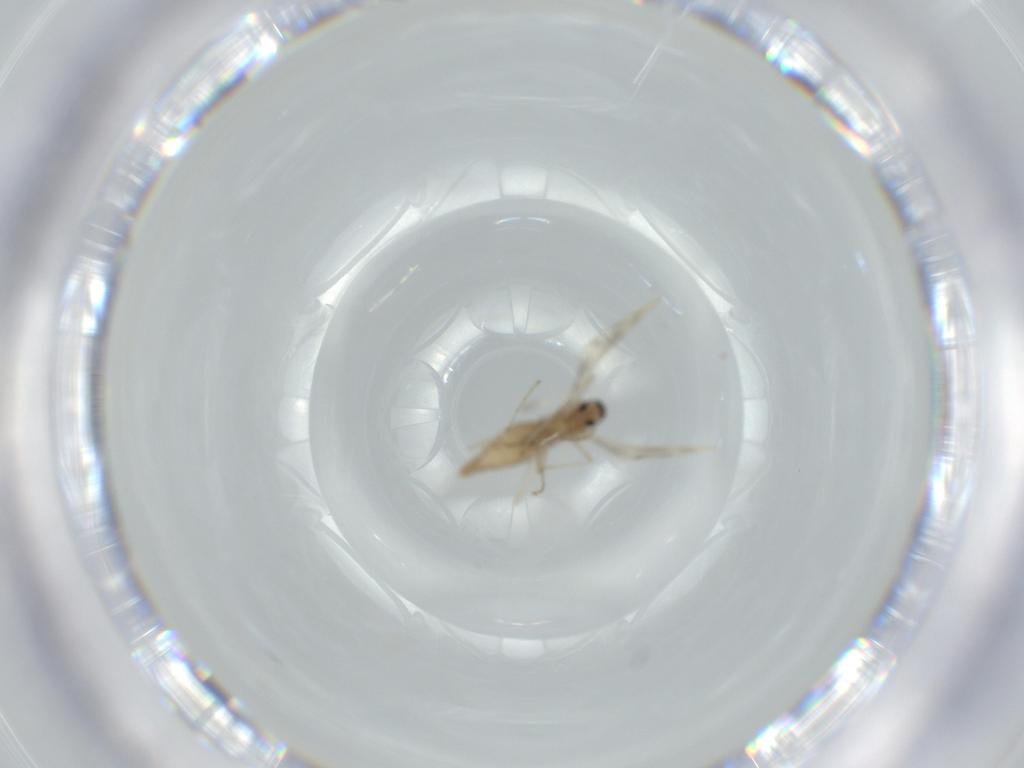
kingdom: Animalia
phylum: Arthropoda
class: Insecta
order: Diptera
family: Cecidomyiidae
